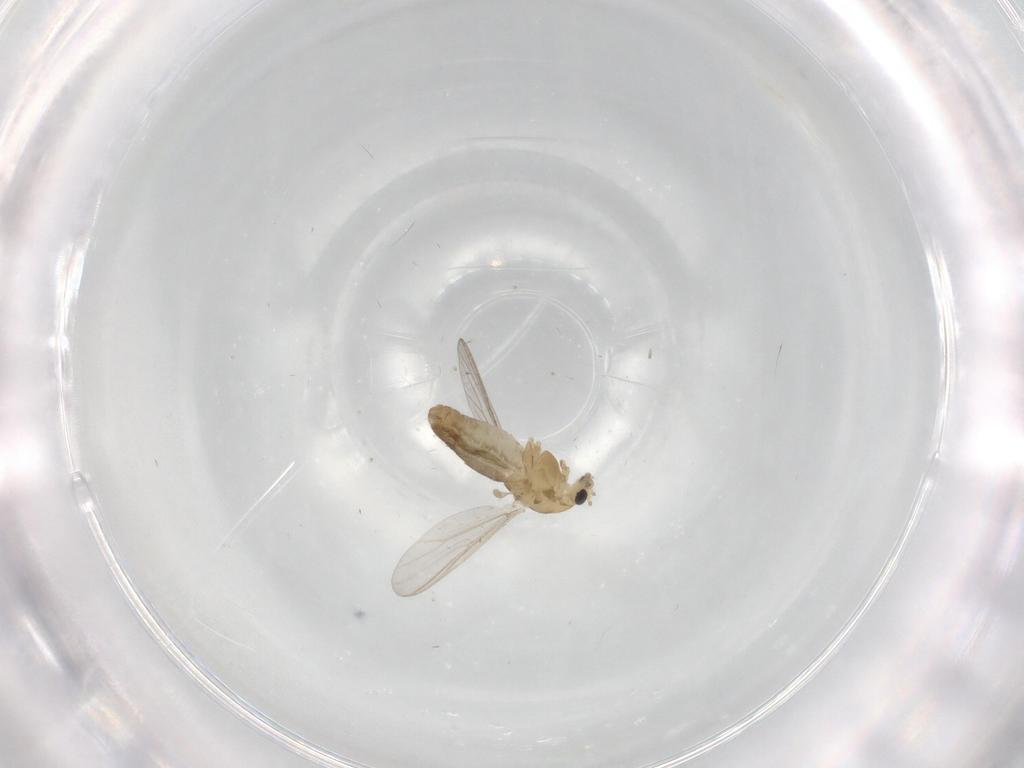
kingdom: Animalia
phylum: Arthropoda
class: Insecta
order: Diptera
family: Chironomidae
